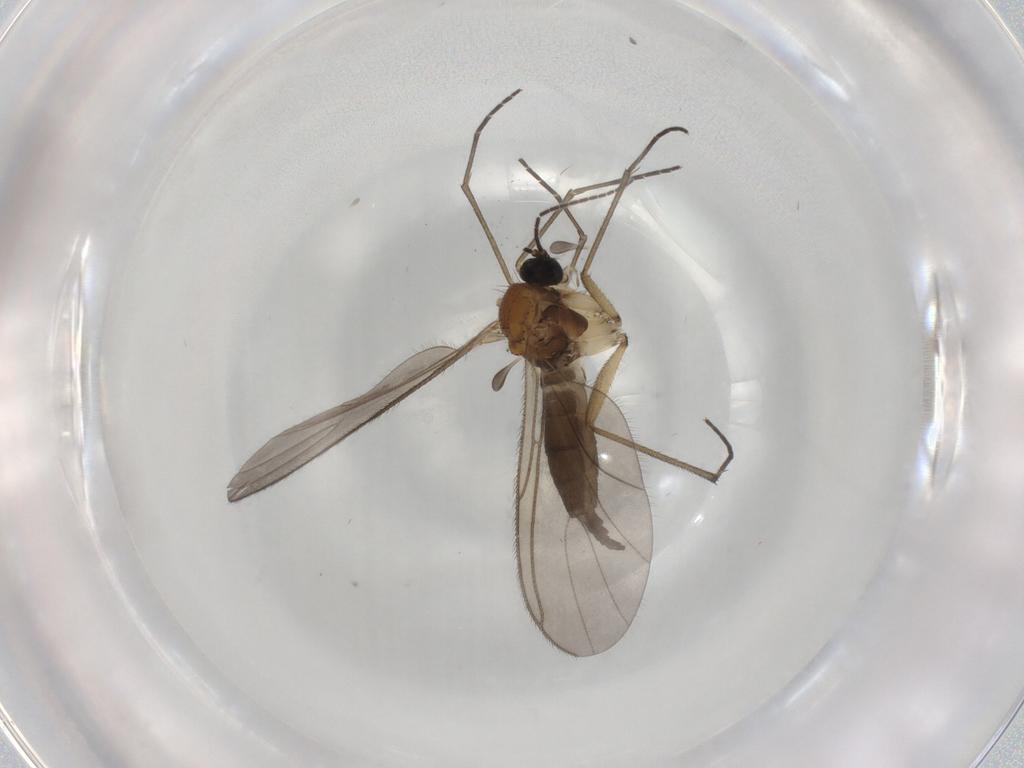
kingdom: Animalia
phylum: Arthropoda
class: Insecta
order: Diptera
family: Sciaridae
